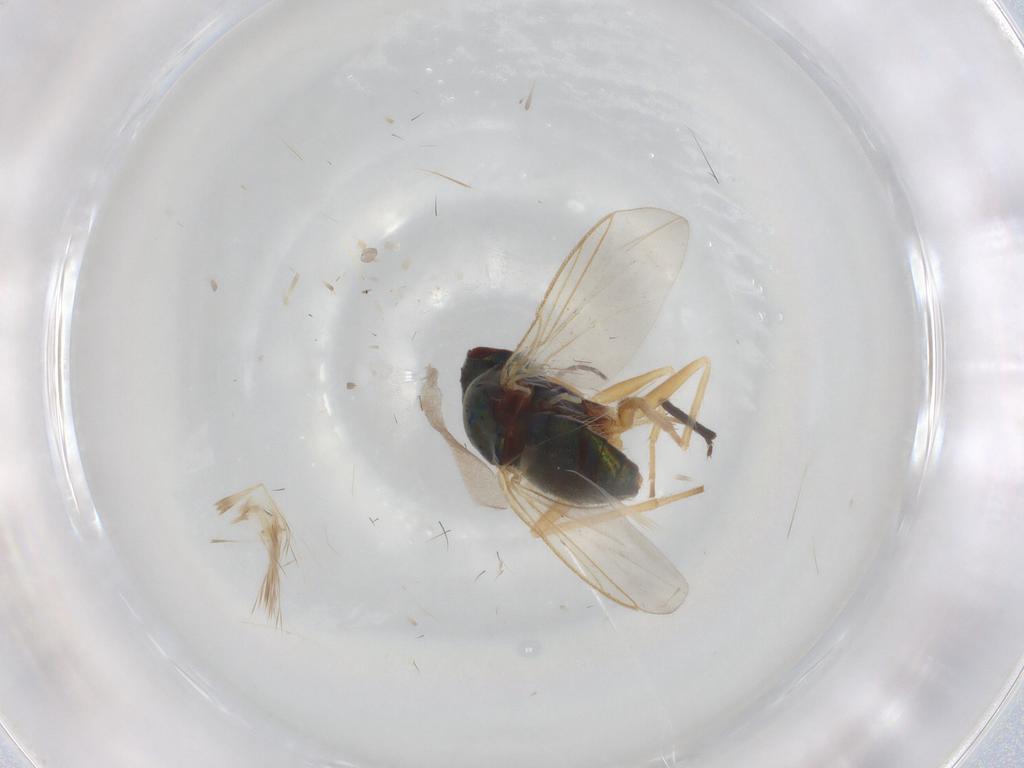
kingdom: Animalia
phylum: Arthropoda
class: Insecta
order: Diptera
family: Dolichopodidae
